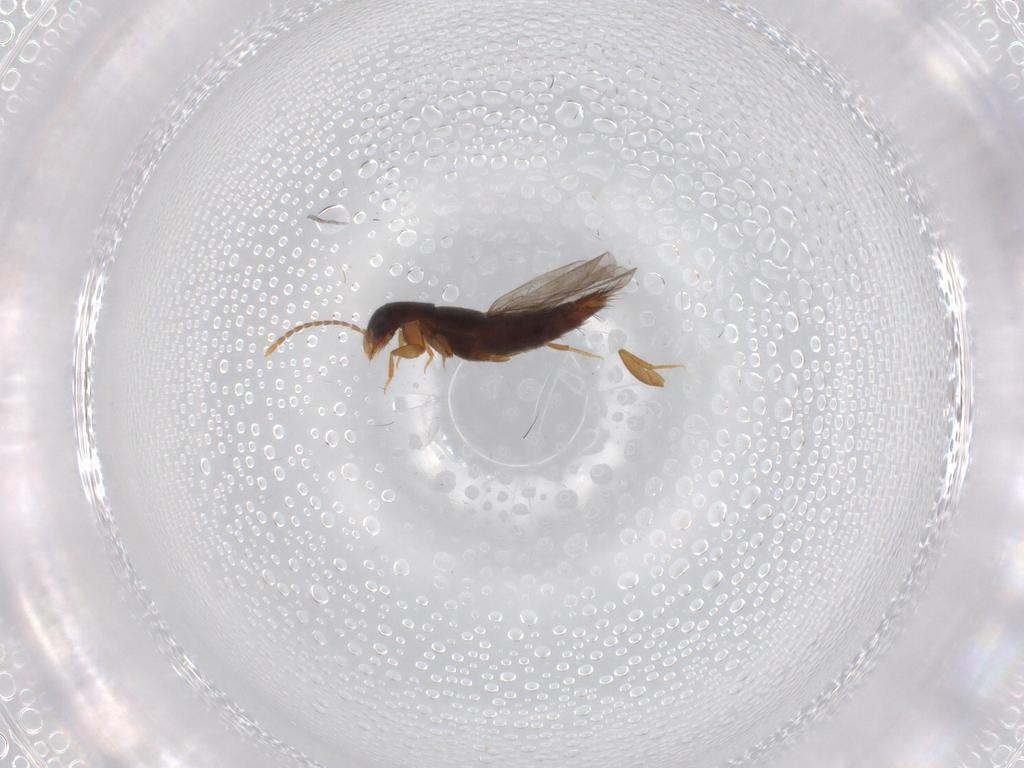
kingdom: Animalia
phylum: Arthropoda
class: Insecta
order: Coleoptera
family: Staphylinidae
